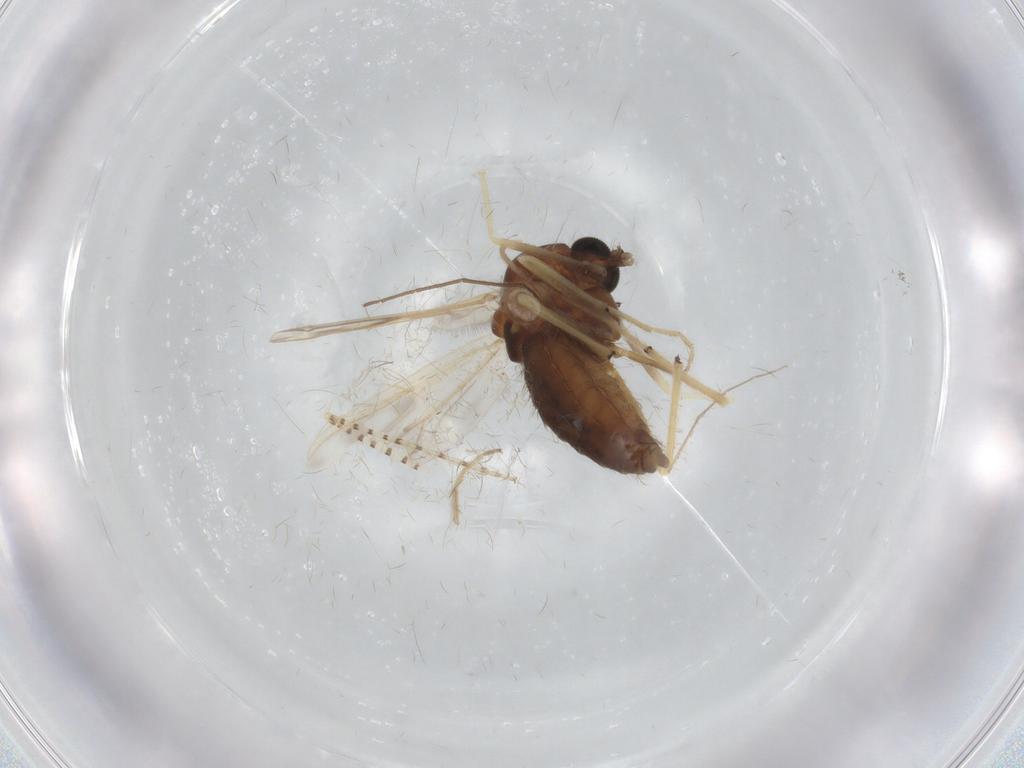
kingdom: Animalia
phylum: Arthropoda
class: Insecta
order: Diptera
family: Chironomidae
